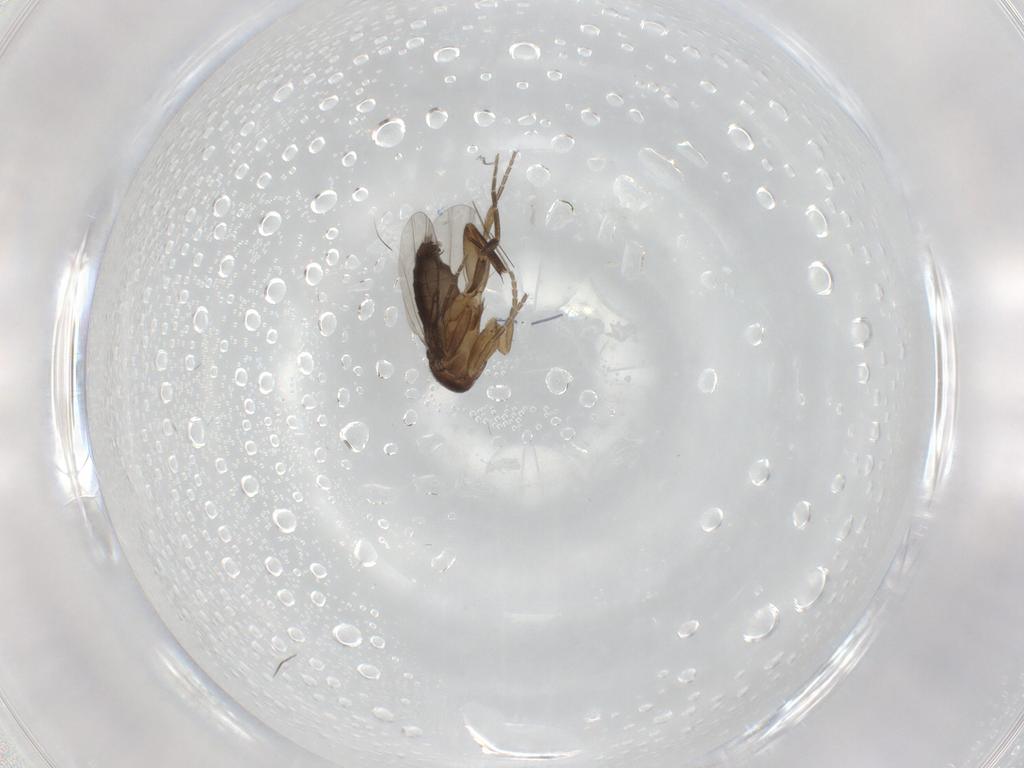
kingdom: Animalia
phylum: Arthropoda
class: Insecta
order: Diptera
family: Phoridae
